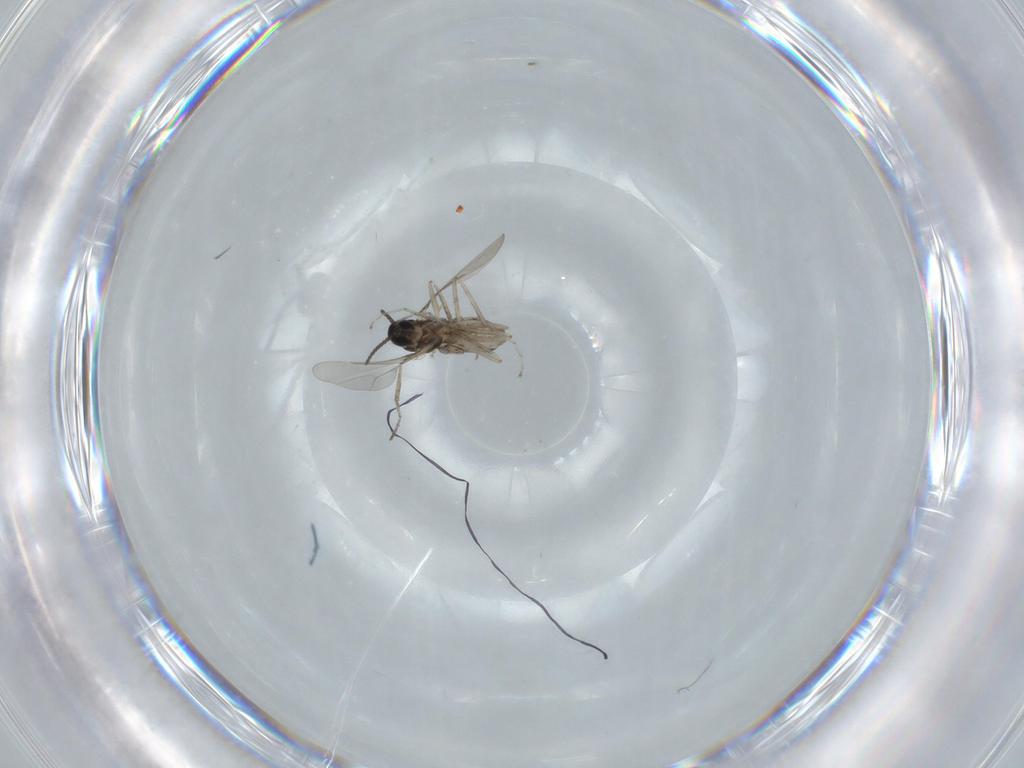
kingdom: Animalia
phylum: Arthropoda
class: Insecta
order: Diptera
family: Cecidomyiidae
